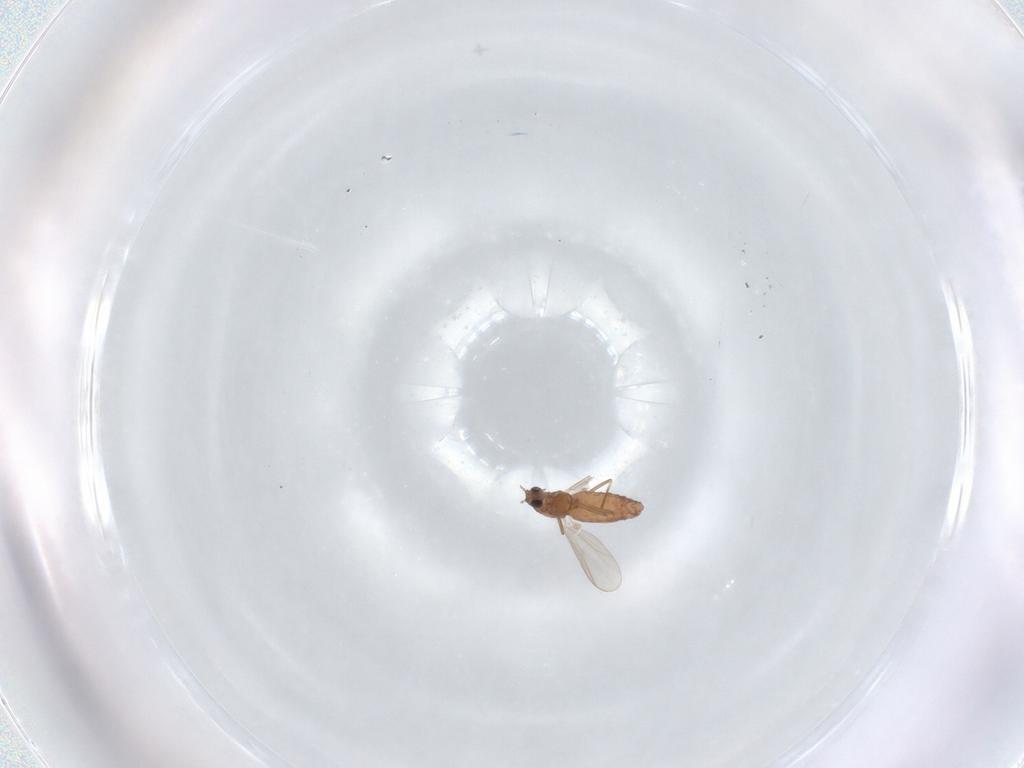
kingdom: Animalia
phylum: Arthropoda
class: Insecta
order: Diptera
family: Chironomidae
